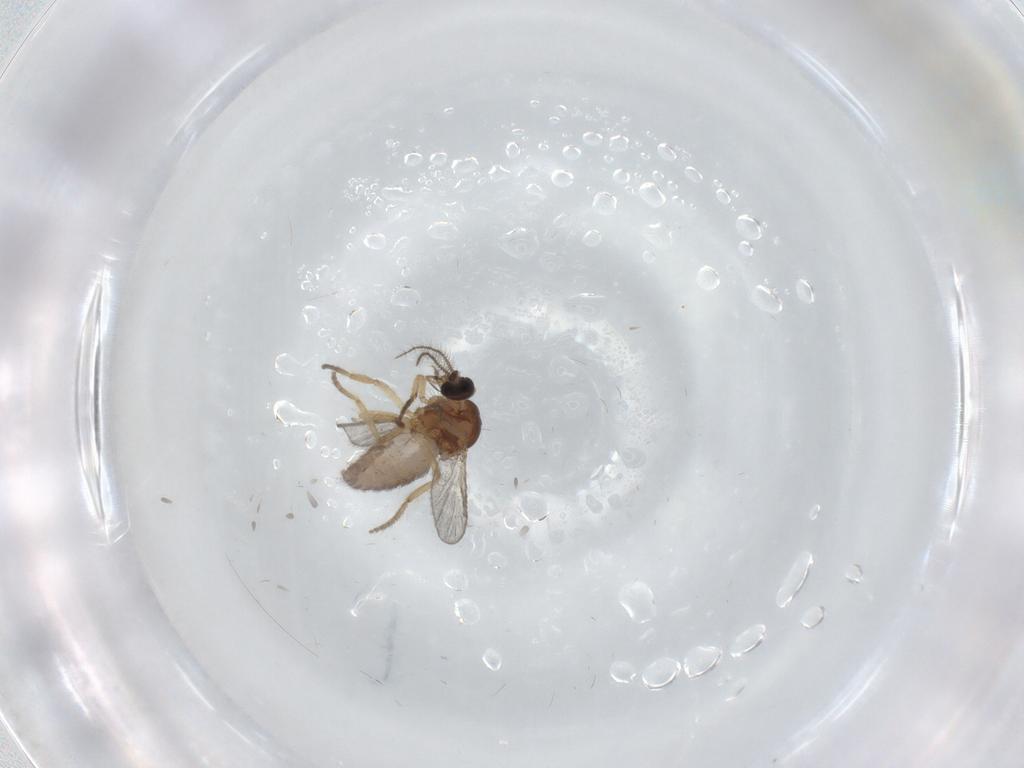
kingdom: Animalia
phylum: Arthropoda
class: Insecta
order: Diptera
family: Ceratopogonidae
